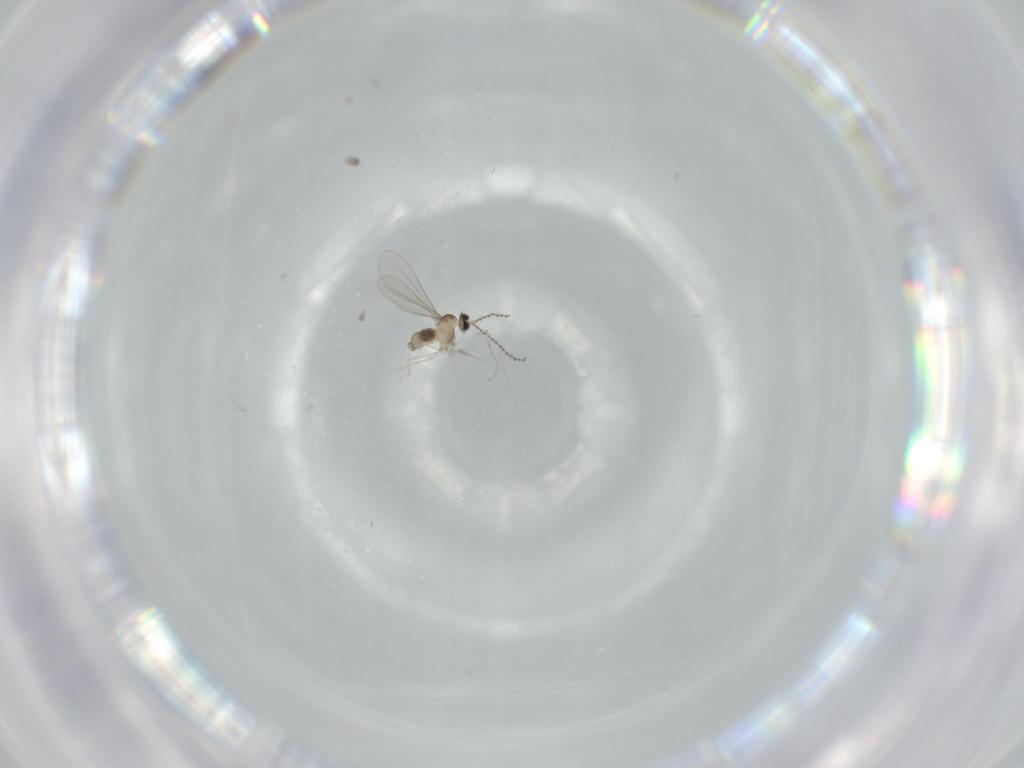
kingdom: Animalia
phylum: Arthropoda
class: Insecta
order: Diptera
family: Cecidomyiidae
